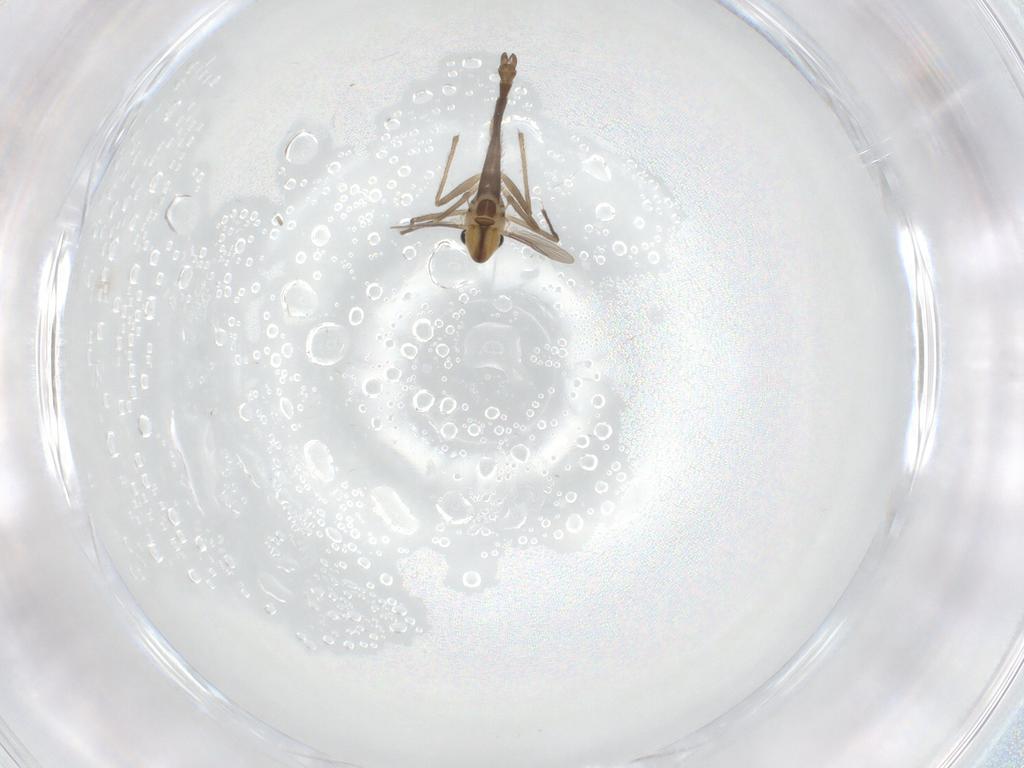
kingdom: Animalia
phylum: Arthropoda
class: Insecta
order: Diptera
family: Chironomidae
